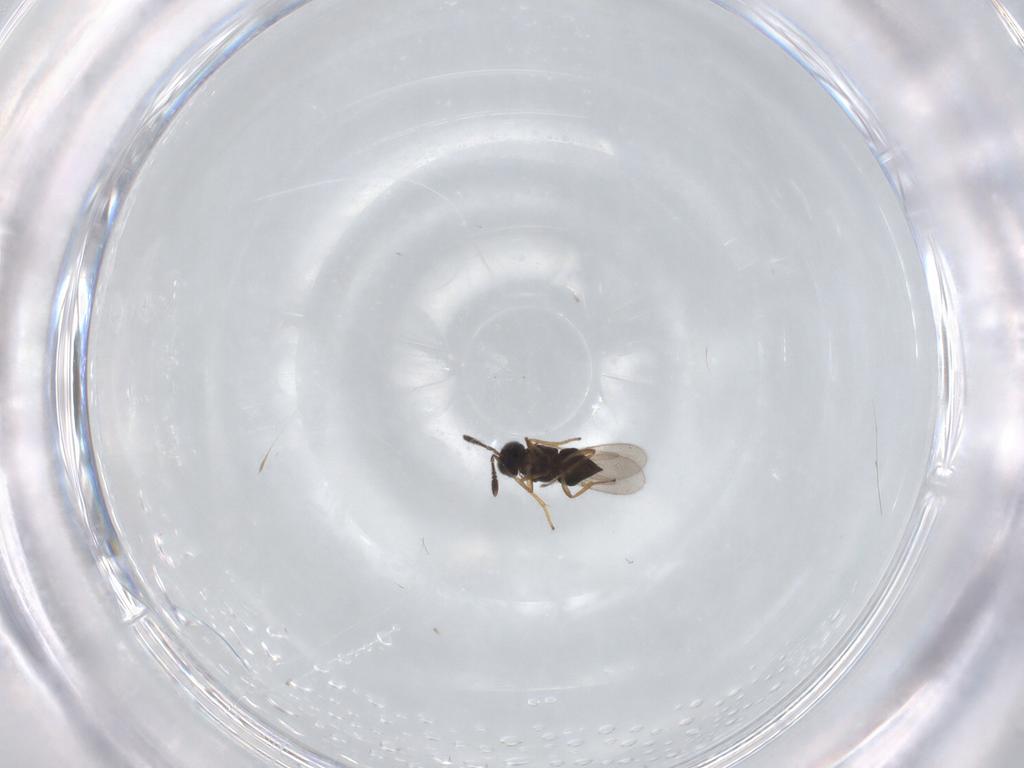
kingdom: Animalia
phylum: Arthropoda
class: Insecta
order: Hymenoptera
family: Encyrtidae
